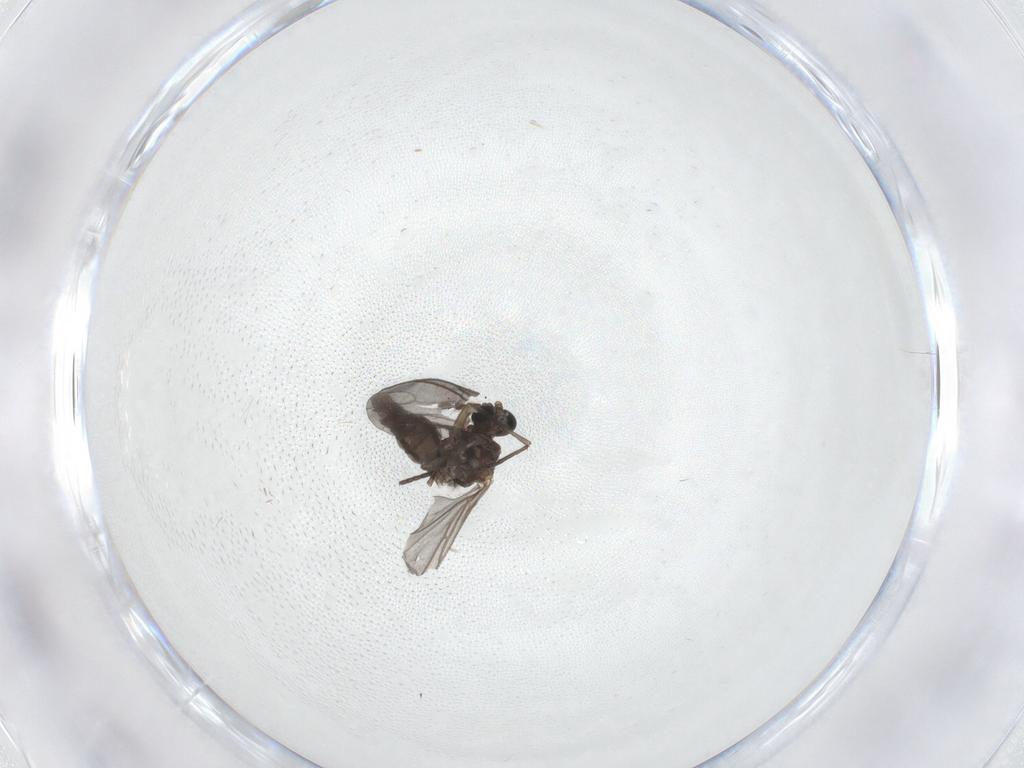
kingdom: Animalia
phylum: Arthropoda
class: Insecta
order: Diptera
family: Sciaridae
